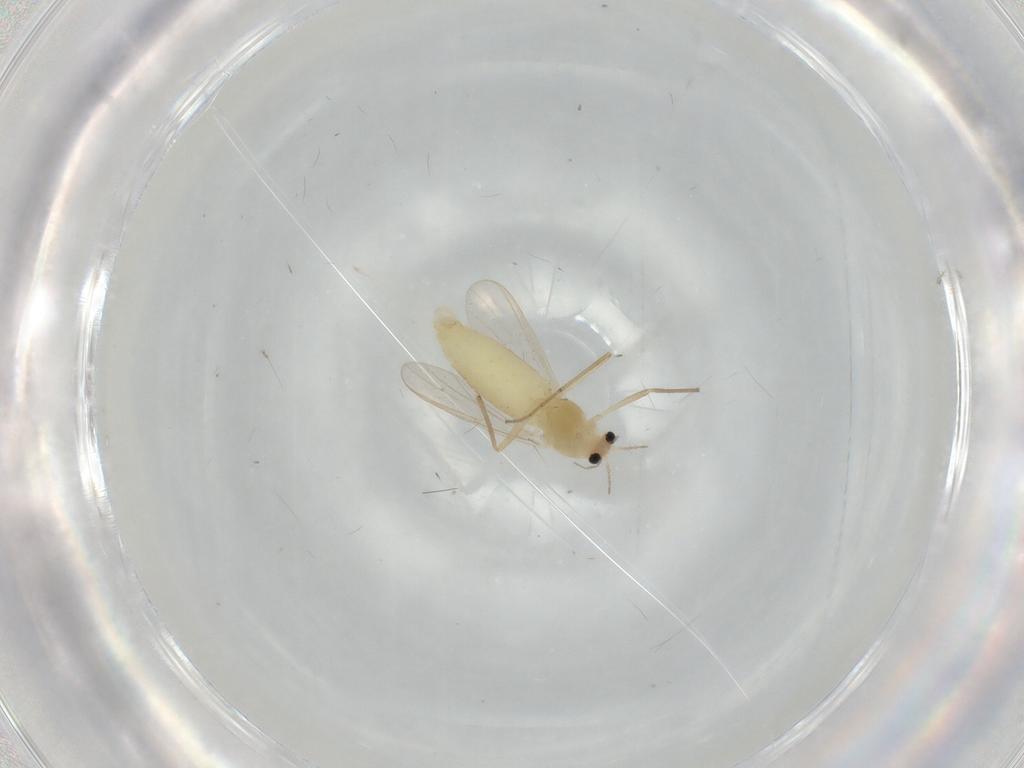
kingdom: Animalia
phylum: Arthropoda
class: Insecta
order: Diptera
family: Chironomidae
